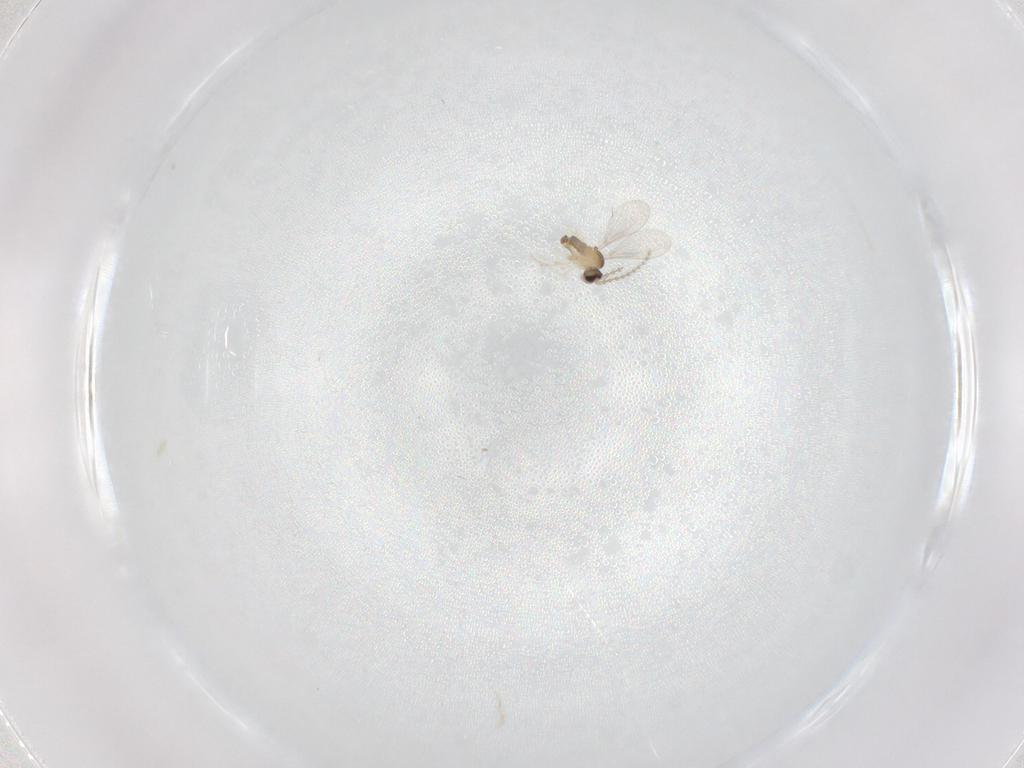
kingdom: Animalia
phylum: Arthropoda
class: Insecta
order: Diptera
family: Cecidomyiidae
